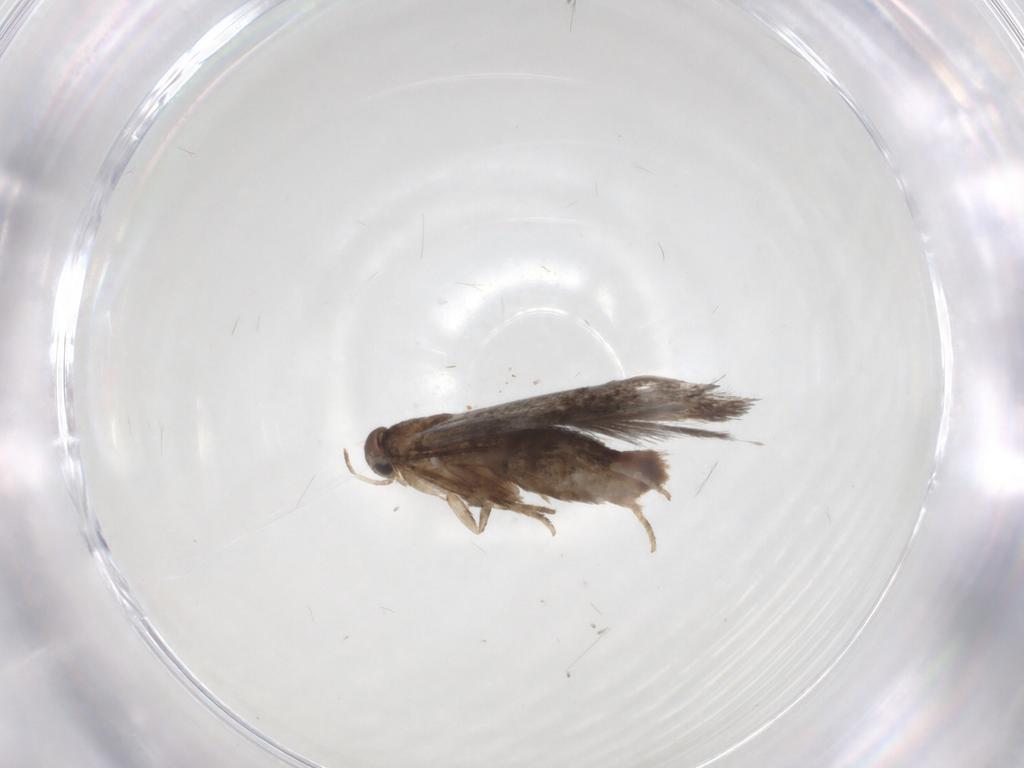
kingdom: Animalia
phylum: Arthropoda
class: Insecta
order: Lepidoptera
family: Elachistidae
